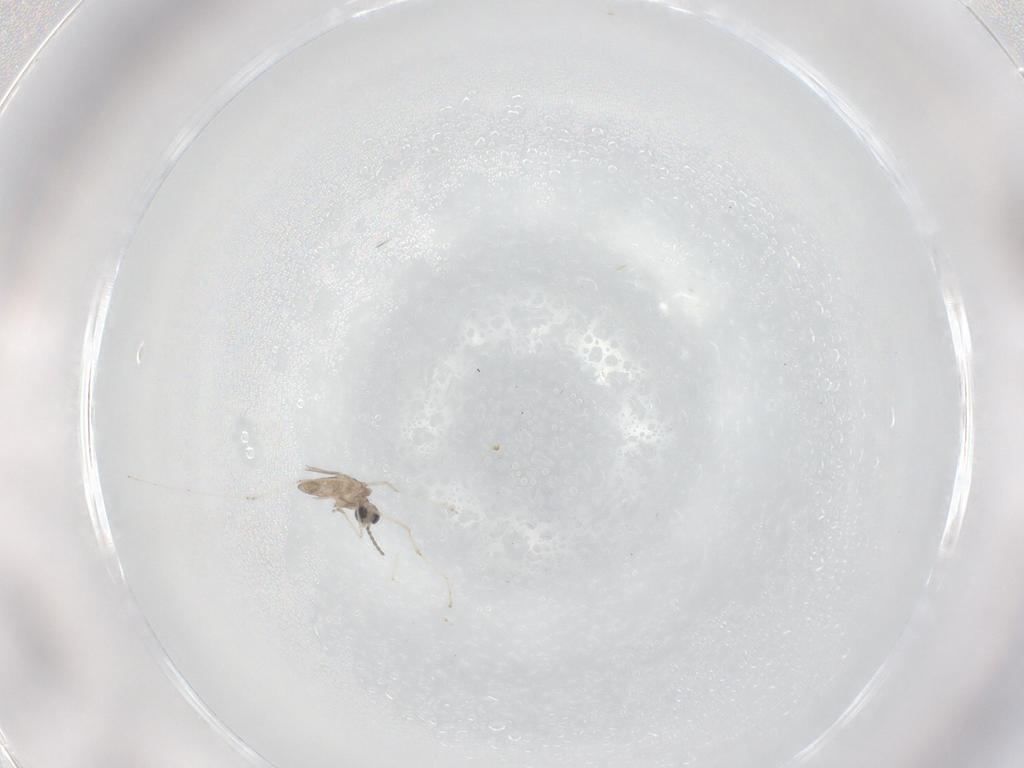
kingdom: Animalia
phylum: Arthropoda
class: Insecta
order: Diptera
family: Cecidomyiidae
